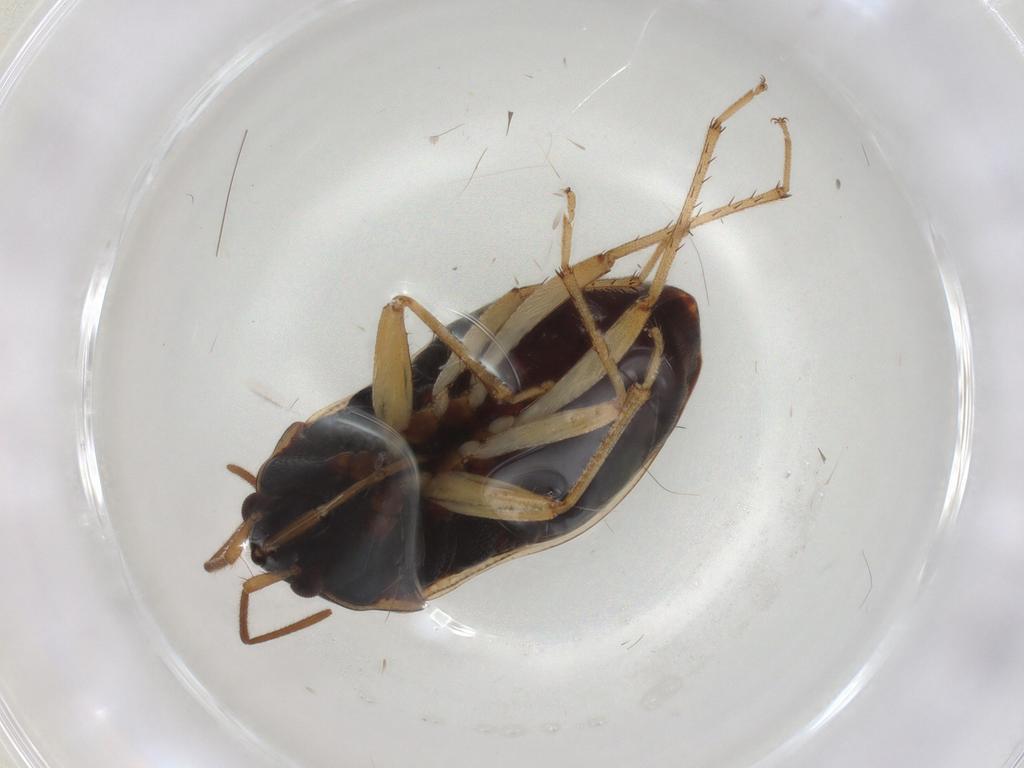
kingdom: Animalia
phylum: Arthropoda
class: Insecta
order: Hemiptera
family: Rhyparochromidae
